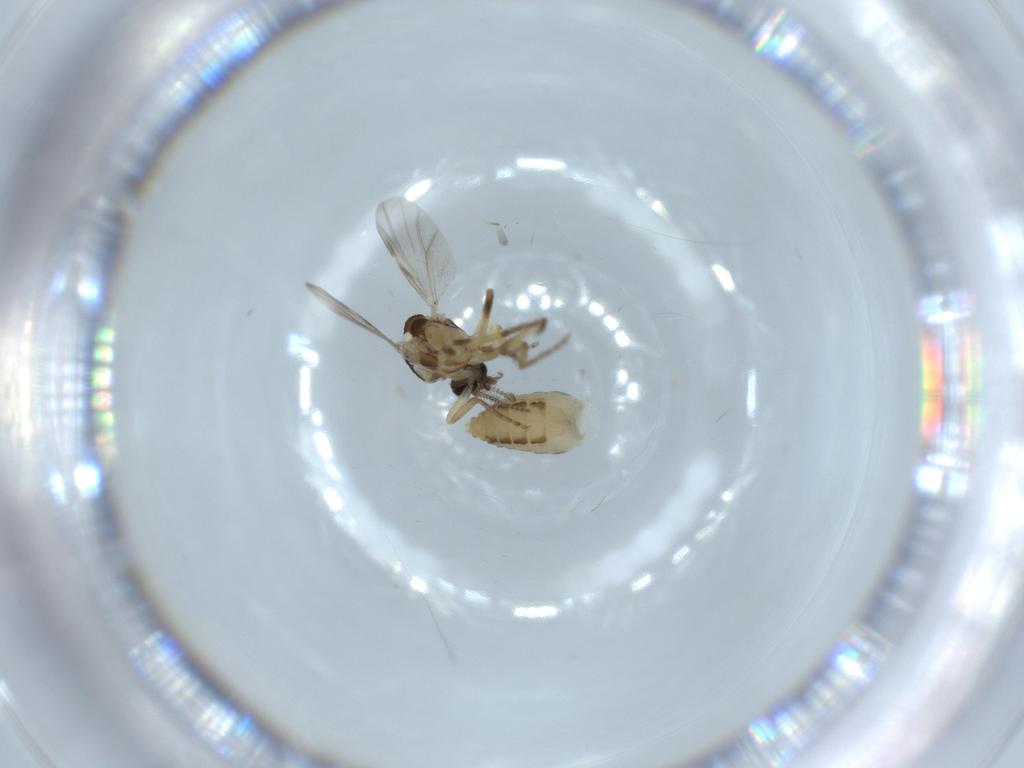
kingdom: Animalia
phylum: Arthropoda
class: Insecta
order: Diptera
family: Ceratopogonidae
